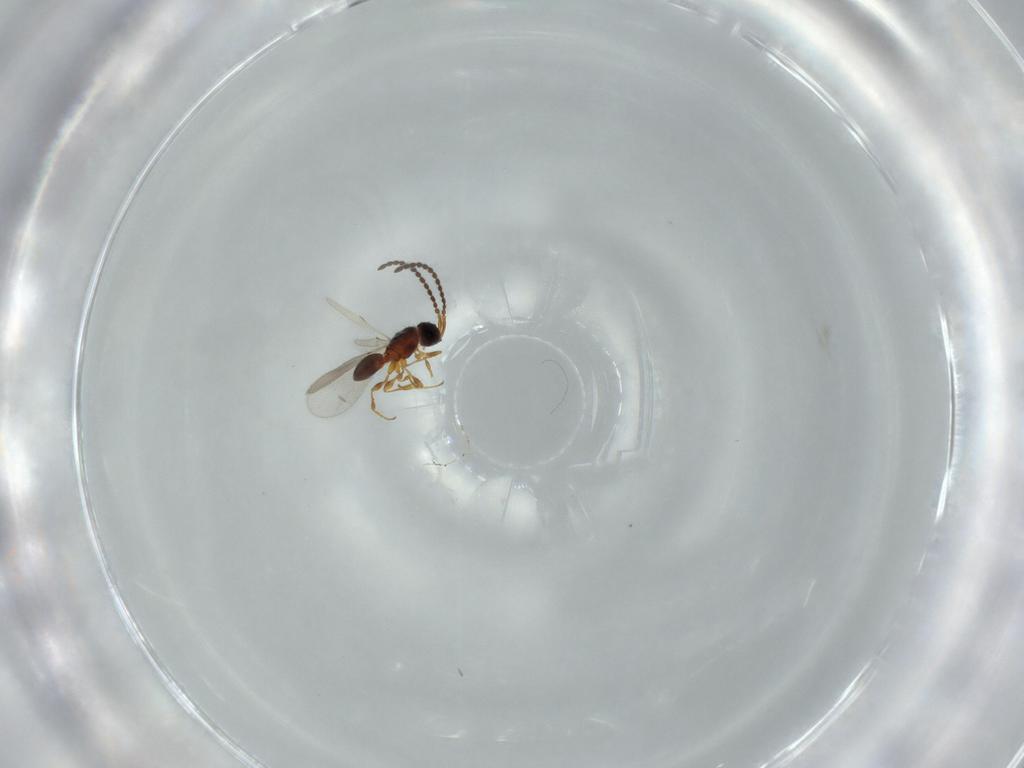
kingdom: Animalia
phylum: Arthropoda
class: Insecta
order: Hymenoptera
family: Diapriidae
